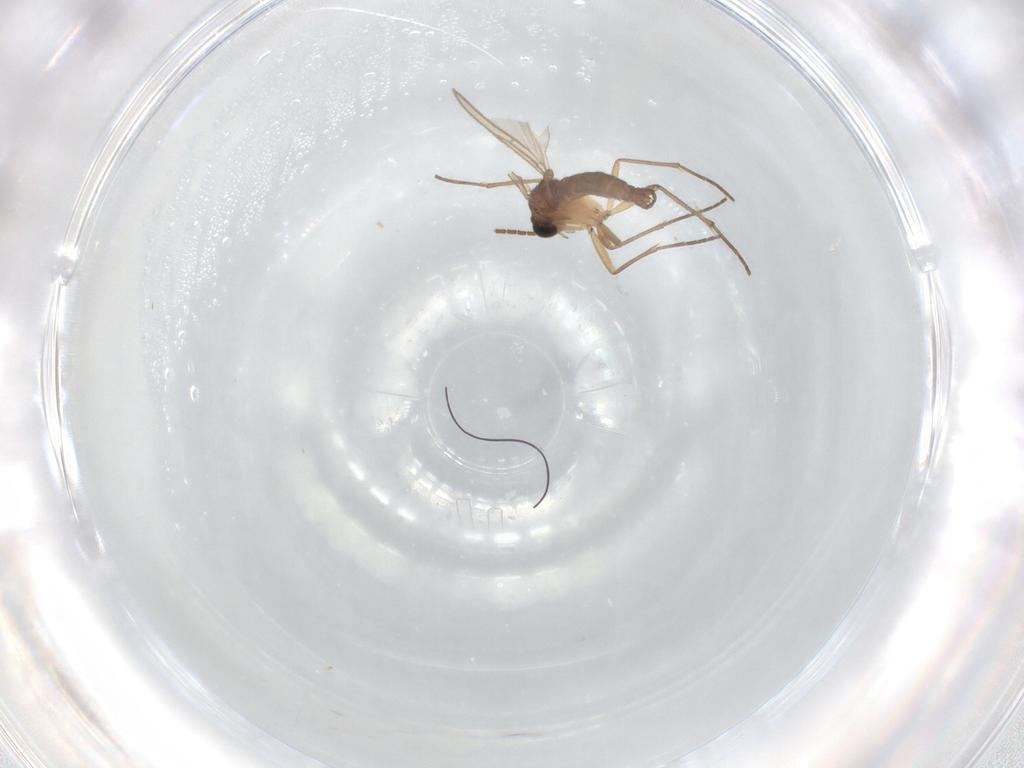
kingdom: Animalia
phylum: Arthropoda
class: Insecta
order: Diptera
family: Sciaridae
